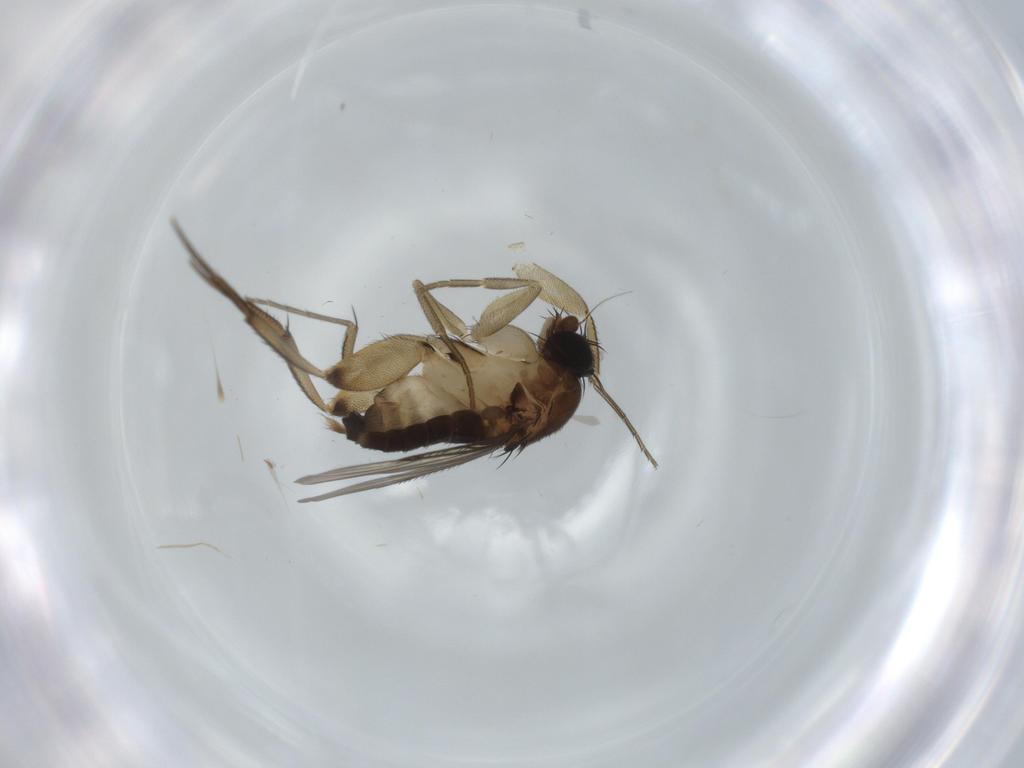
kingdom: Animalia
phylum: Arthropoda
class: Insecta
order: Diptera
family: Phoridae
